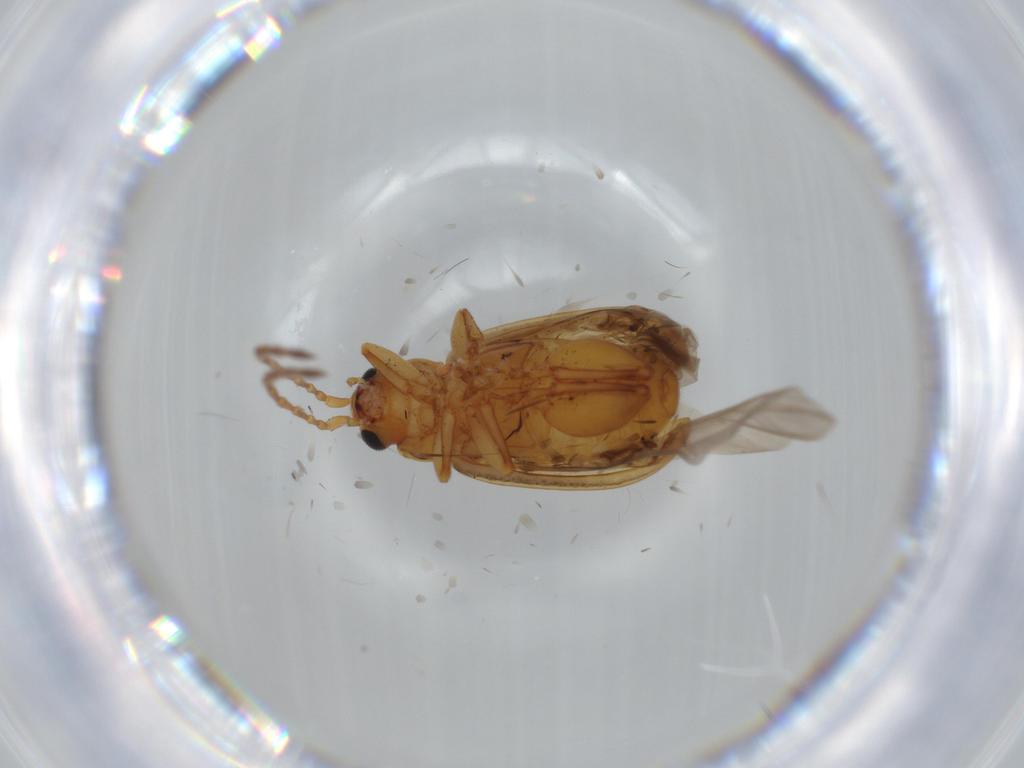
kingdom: Animalia
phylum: Arthropoda
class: Insecta
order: Coleoptera
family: Chrysomelidae
